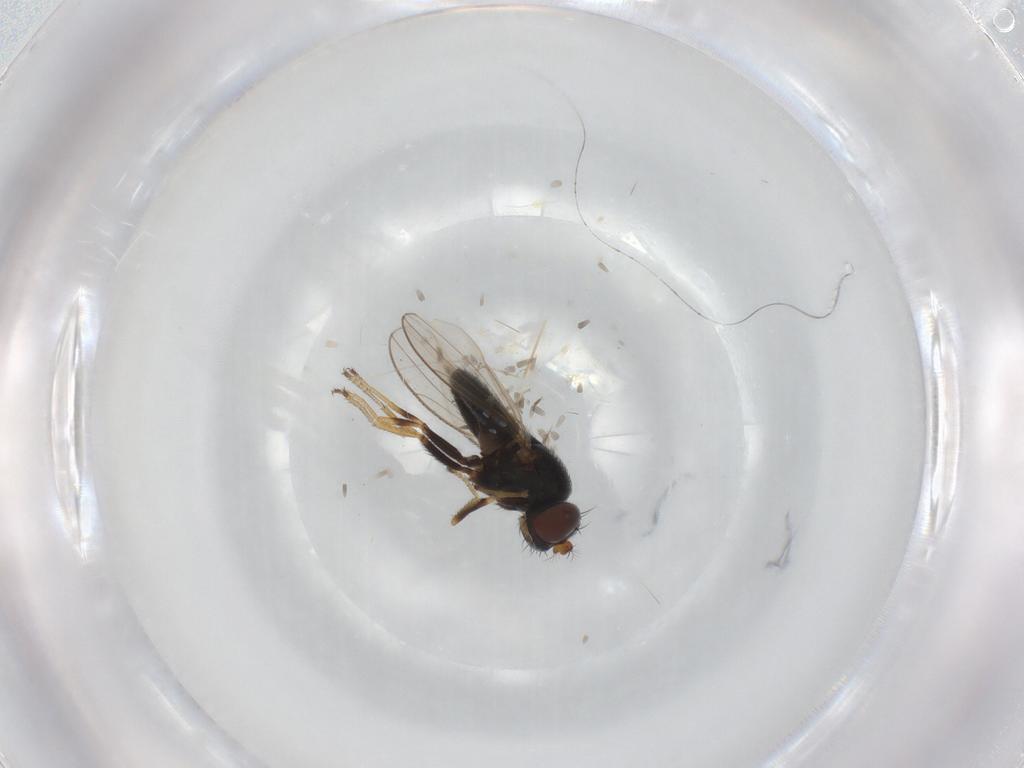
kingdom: Animalia
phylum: Arthropoda
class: Insecta
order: Diptera
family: Ephydridae
